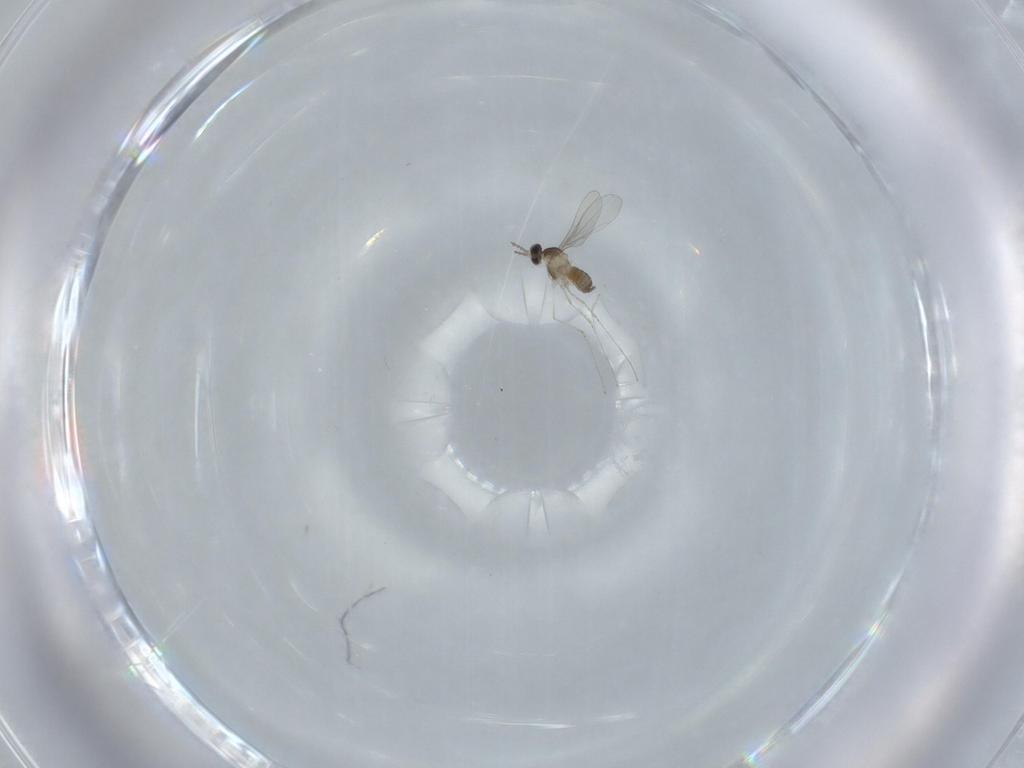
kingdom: Animalia
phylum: Arthropoda
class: Insecta
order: Diptera
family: Cecidomyiidae
